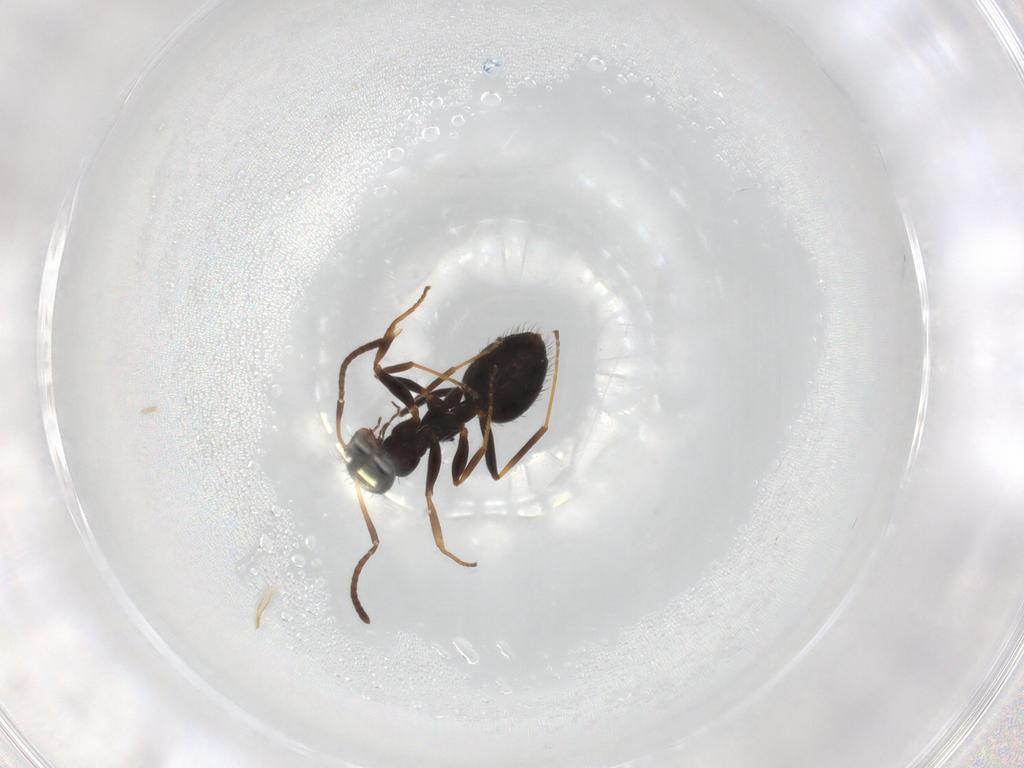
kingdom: Animalia
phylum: Arthropoda
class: Insecta
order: Hymenoptera
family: Formicidae
